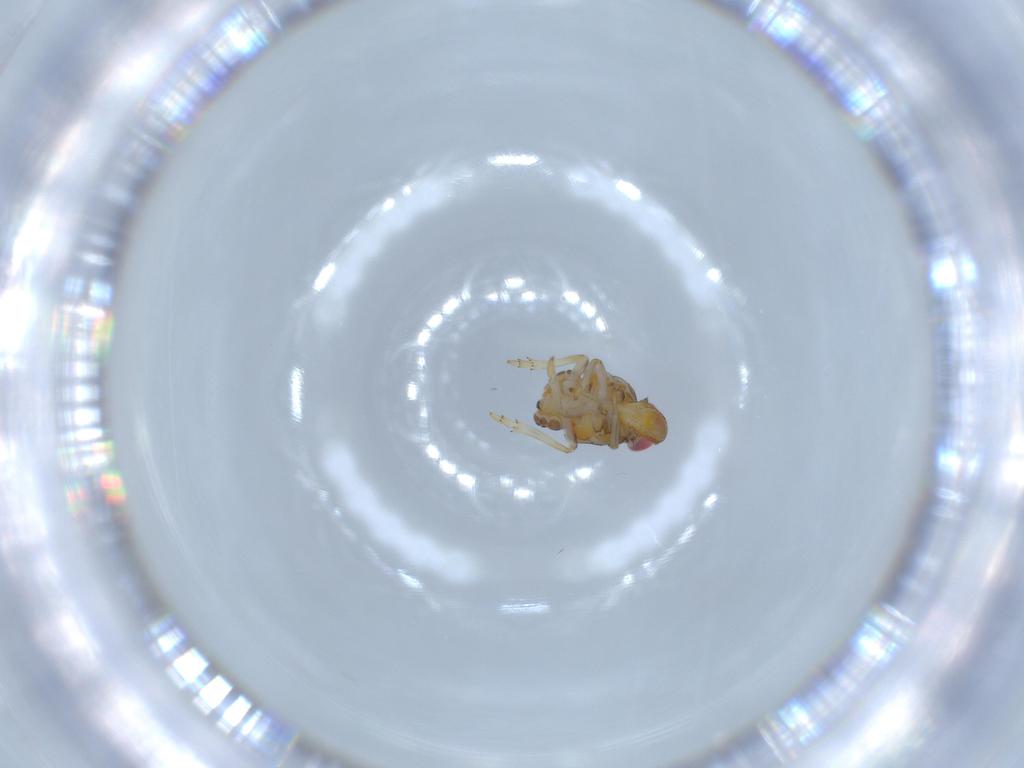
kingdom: Animalia
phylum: Arthropoda
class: Insecta
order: Hemiptera
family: Issidae
